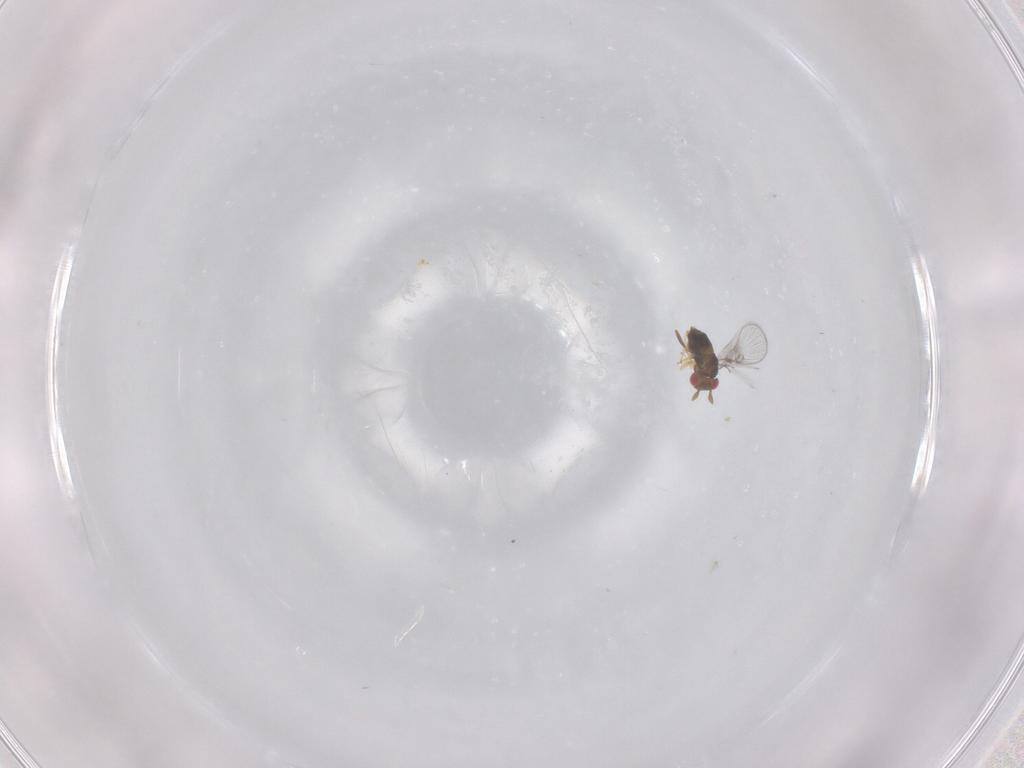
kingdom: Animalia
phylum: Arthropoda
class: Insecta
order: Hymenoptera
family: Trichogrammatidae
